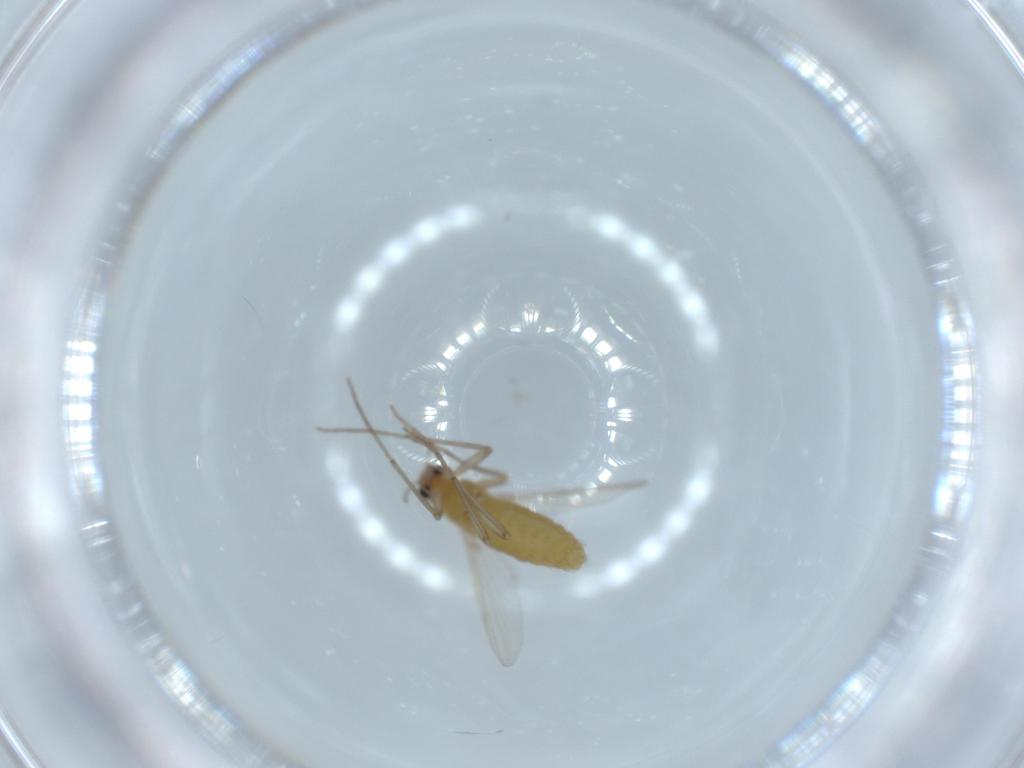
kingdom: Animalia
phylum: Arthropoda
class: Insecta
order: Diptera
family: Chironomidae
